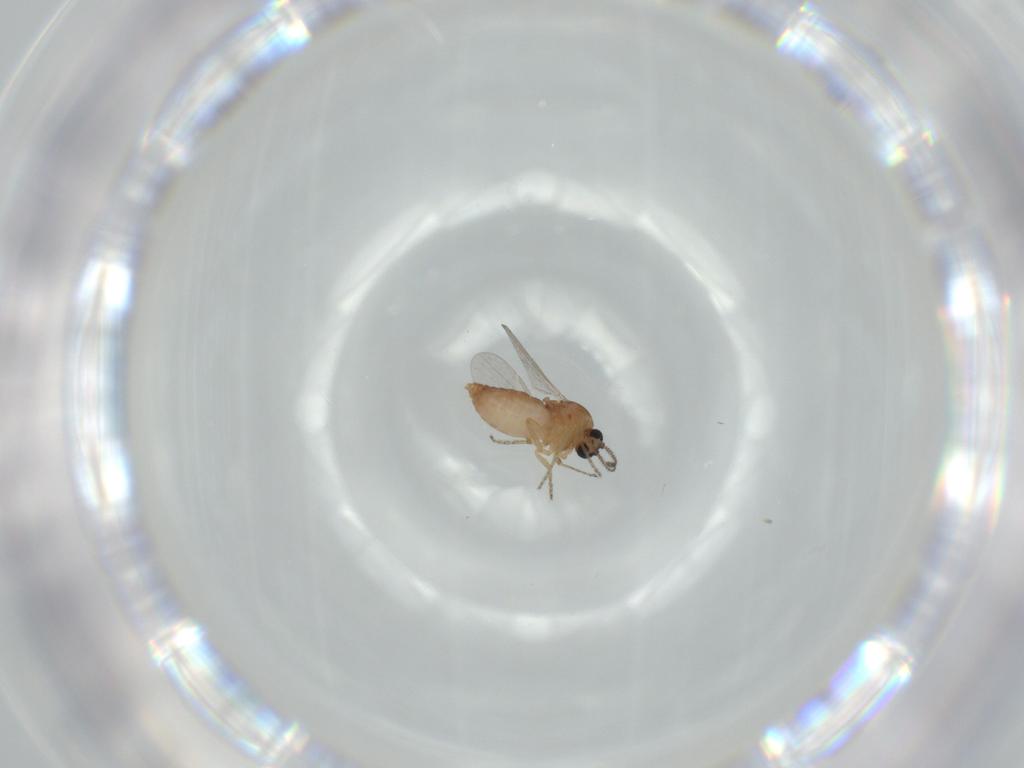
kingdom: Animalia
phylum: Arthropoda
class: Insecta
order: Diptera
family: Ceratopogonidae
